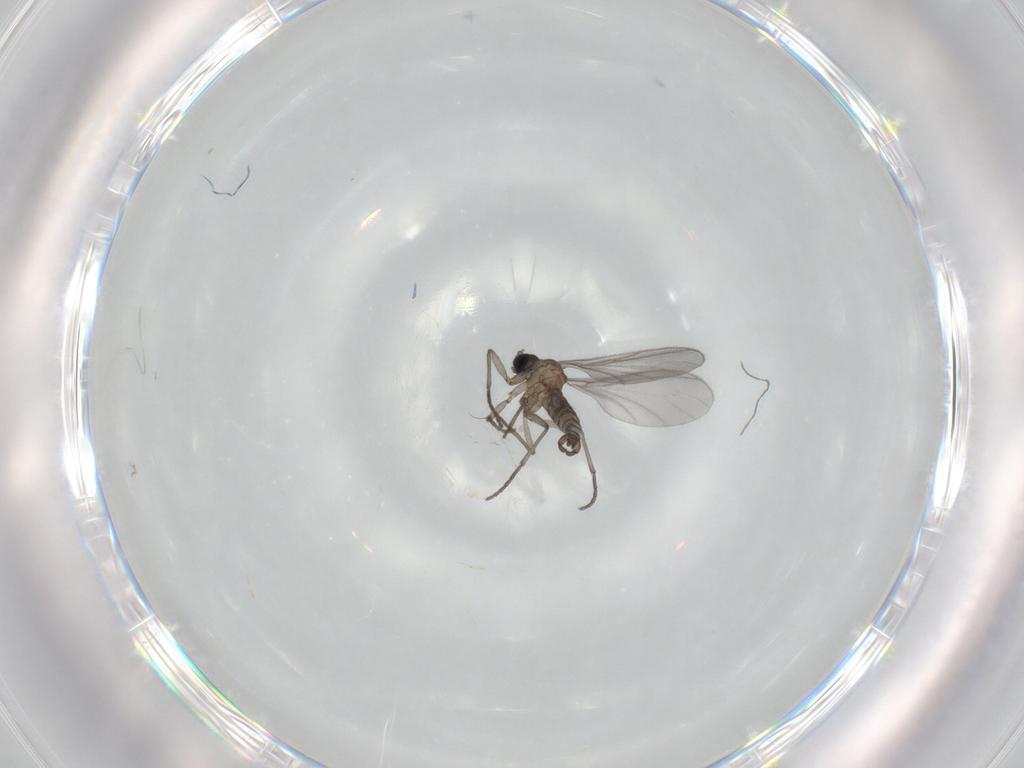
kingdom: Animalia
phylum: Arthropoda
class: Insecta
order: Diptera
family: Sciaridae
